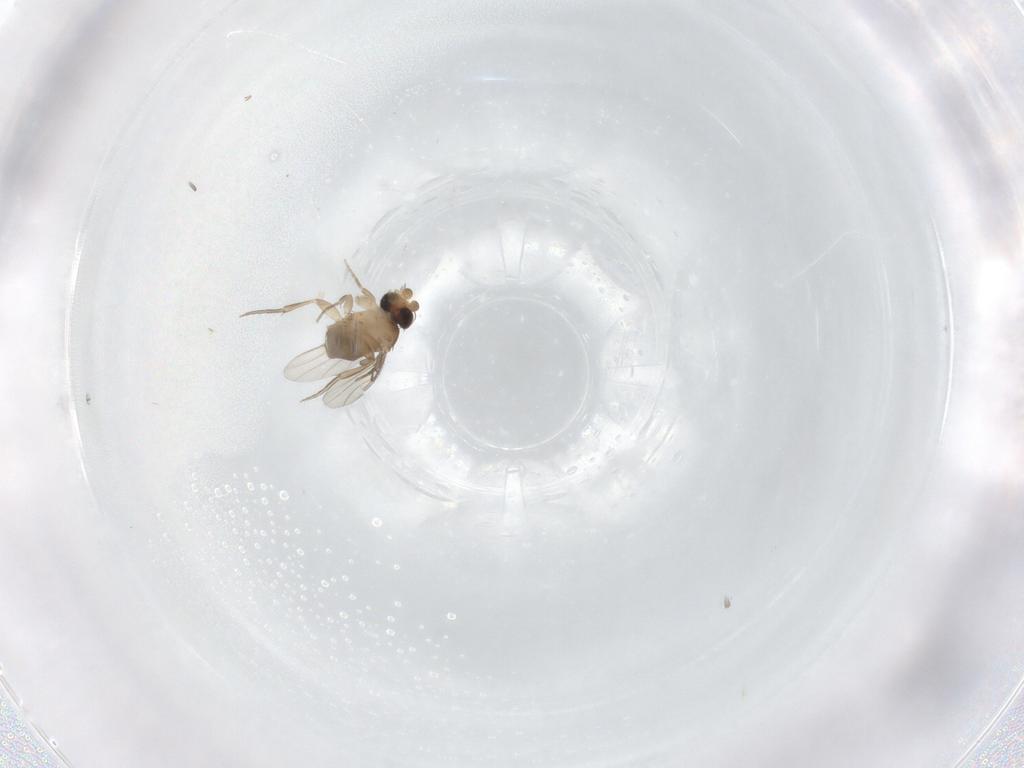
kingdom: Animalia
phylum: Arthropoda
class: Insecta
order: Diptera
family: Phoridae
